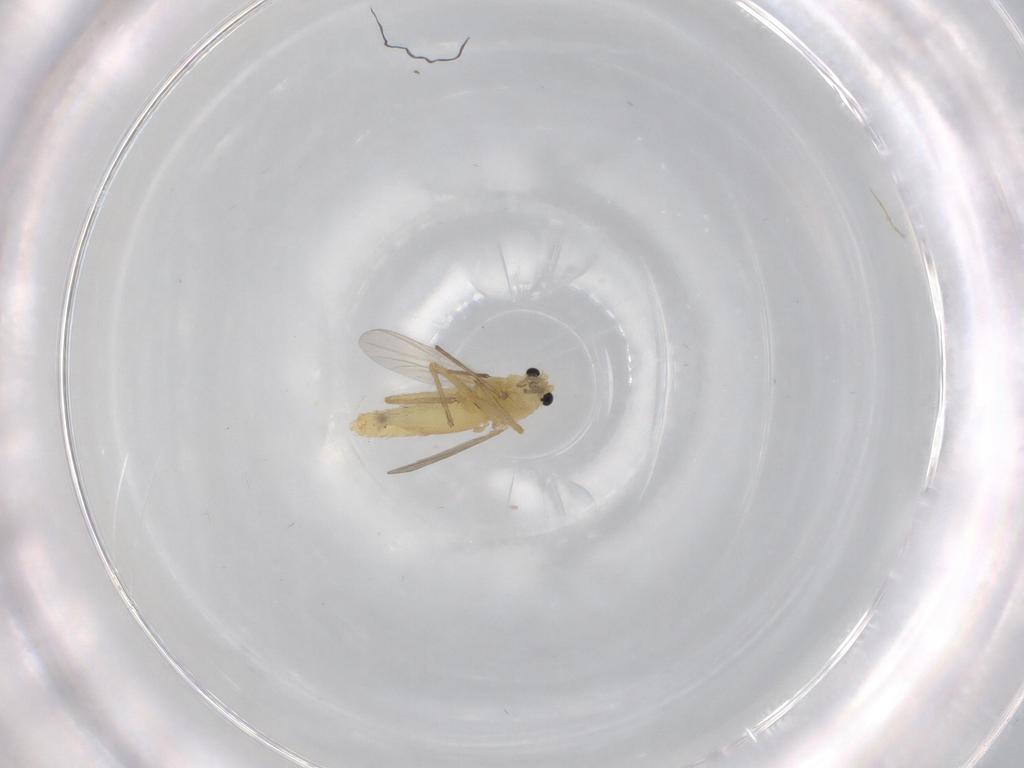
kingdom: Animalia
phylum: Arthropoda
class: Insecta
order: Diptera
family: Chironomidae
